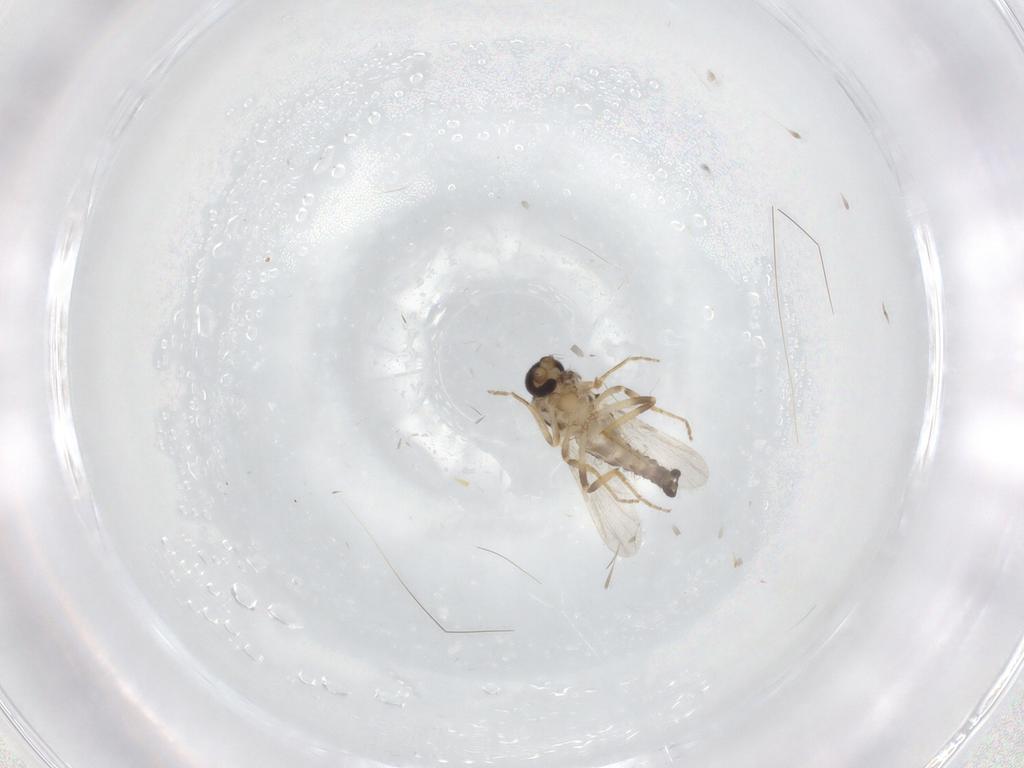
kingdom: Animalia
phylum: Arthropoda
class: Insecta
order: Diptera
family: Ceratopogonidae
